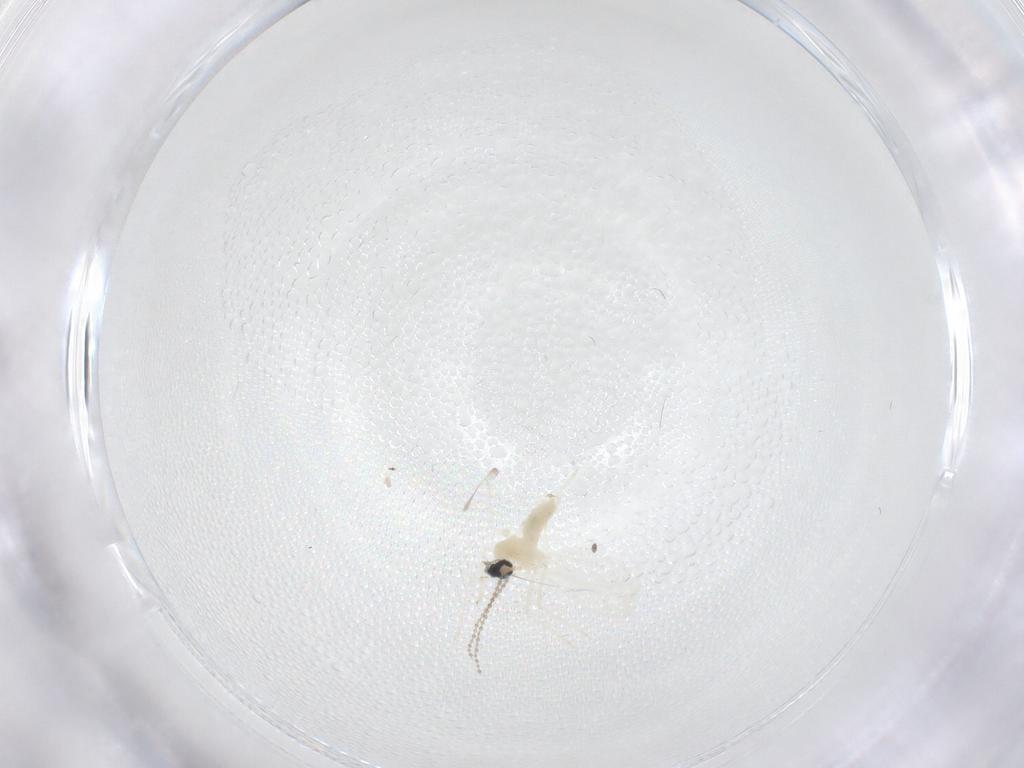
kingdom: Animalia
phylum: Arthropoda
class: Insecta
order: Diptera
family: Cecidomyiidae
